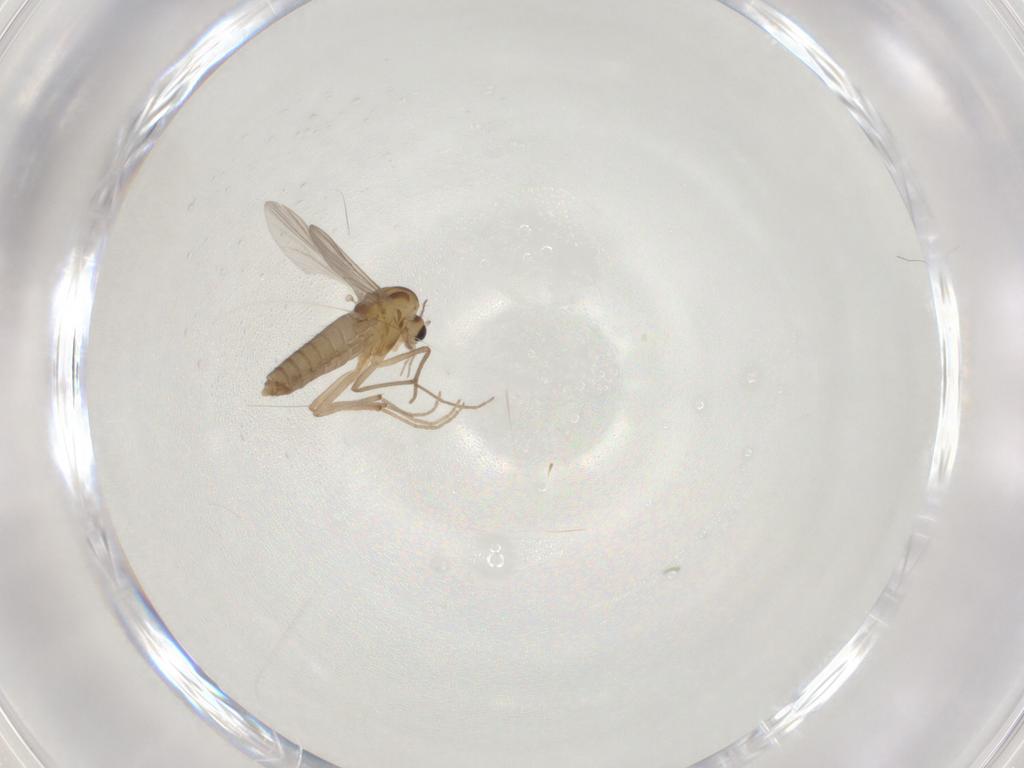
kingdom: Animalia
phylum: Arthropoda
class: Insecta
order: Diptera
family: Chironomidae
